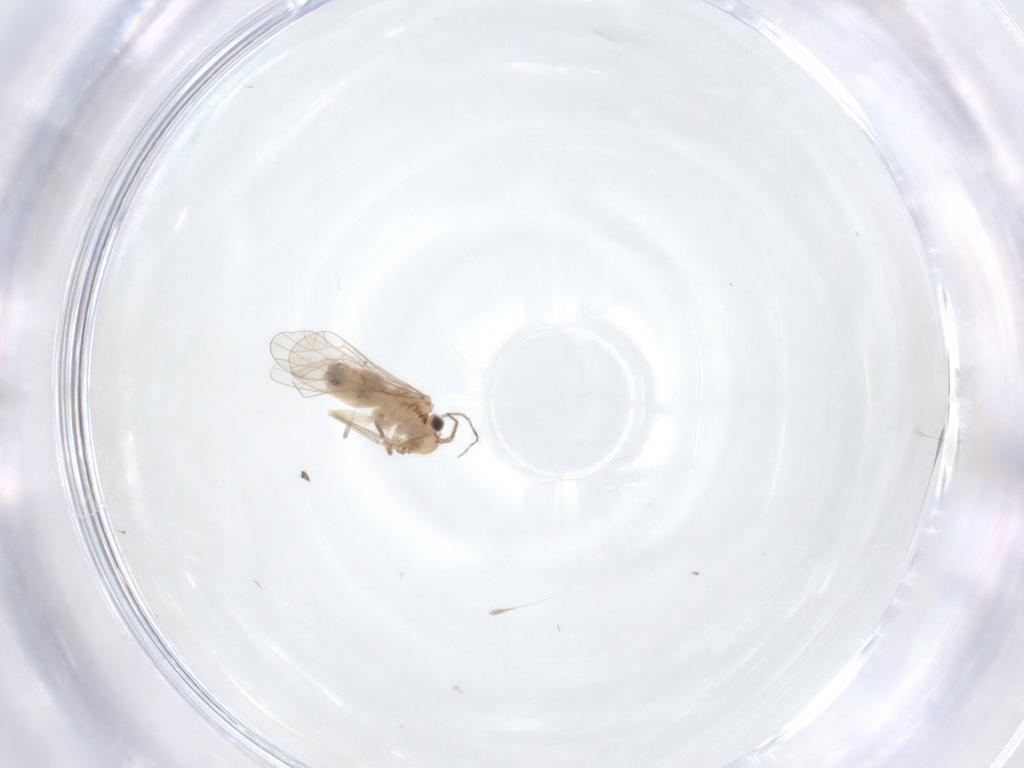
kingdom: Animalia
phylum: Arthropoda
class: Insecta
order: Psocodea
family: Ectopsocidae
